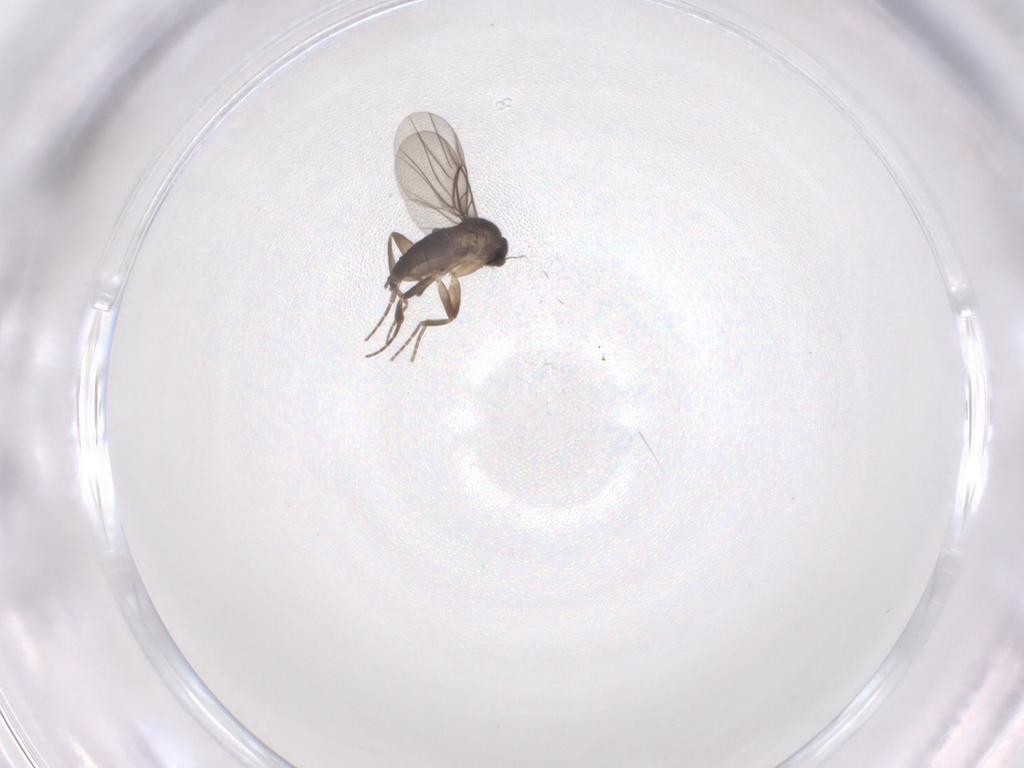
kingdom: Animalia
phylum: Arthropoda
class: Insecta
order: Diptera
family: Phoridae
